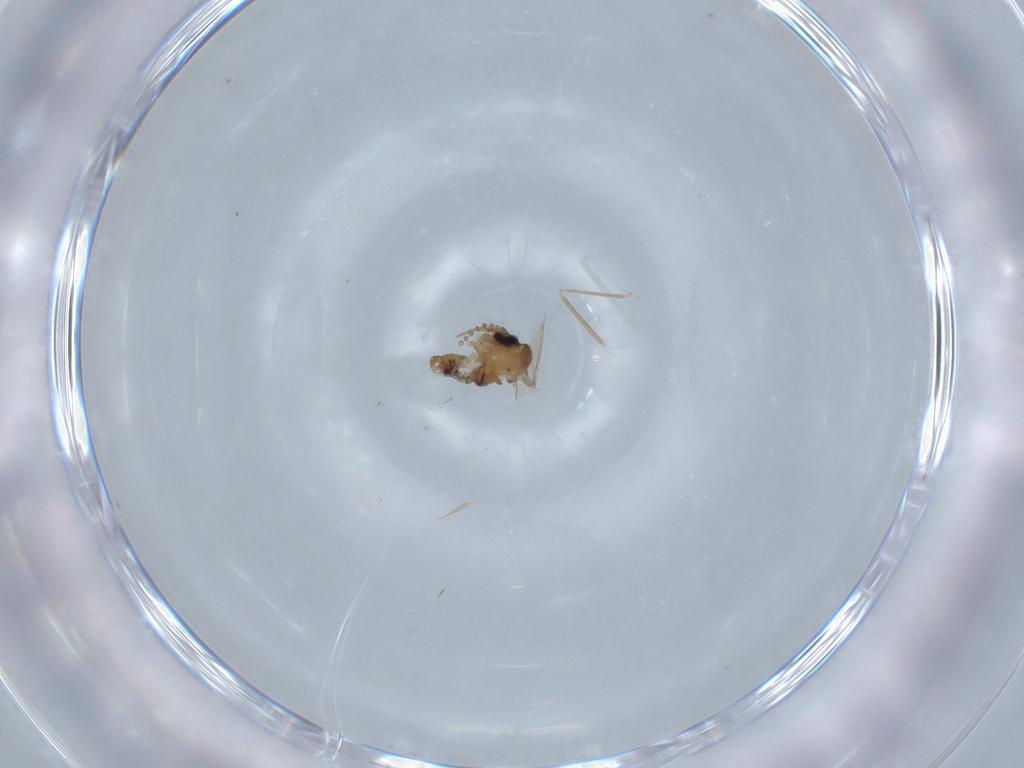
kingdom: Animalia
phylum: Arthropoda
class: Insecta
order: Diptera
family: Psychodidae
